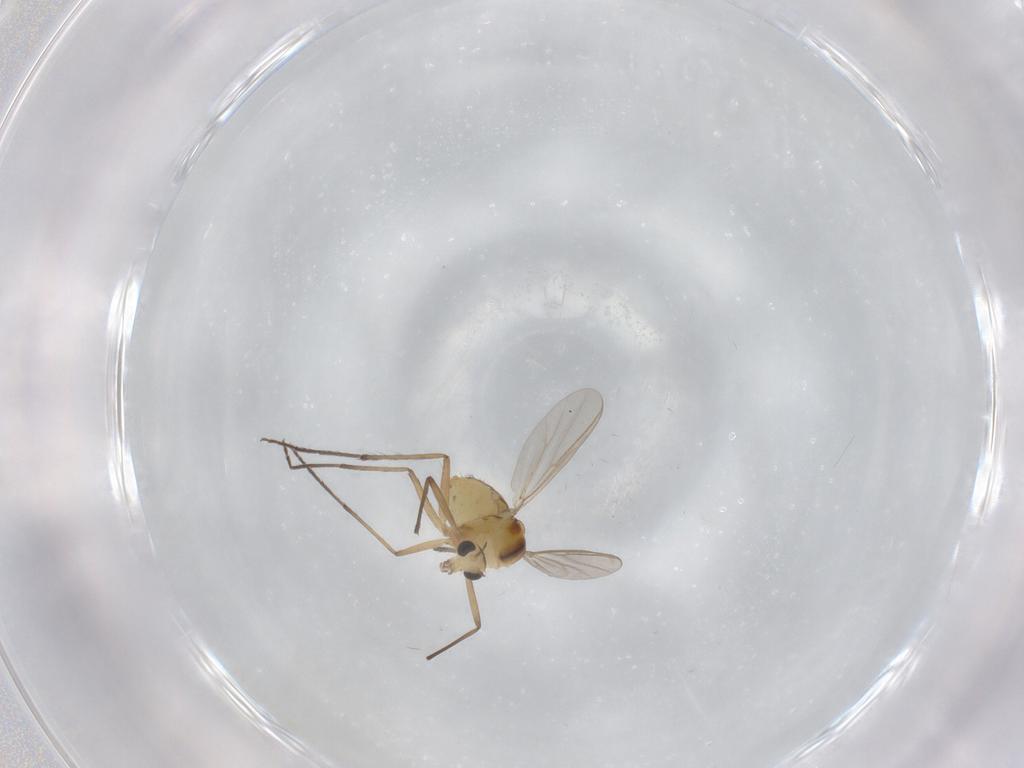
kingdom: Animalia
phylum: Arthropoda
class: Insecta
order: Diptera
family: Chironomidae
